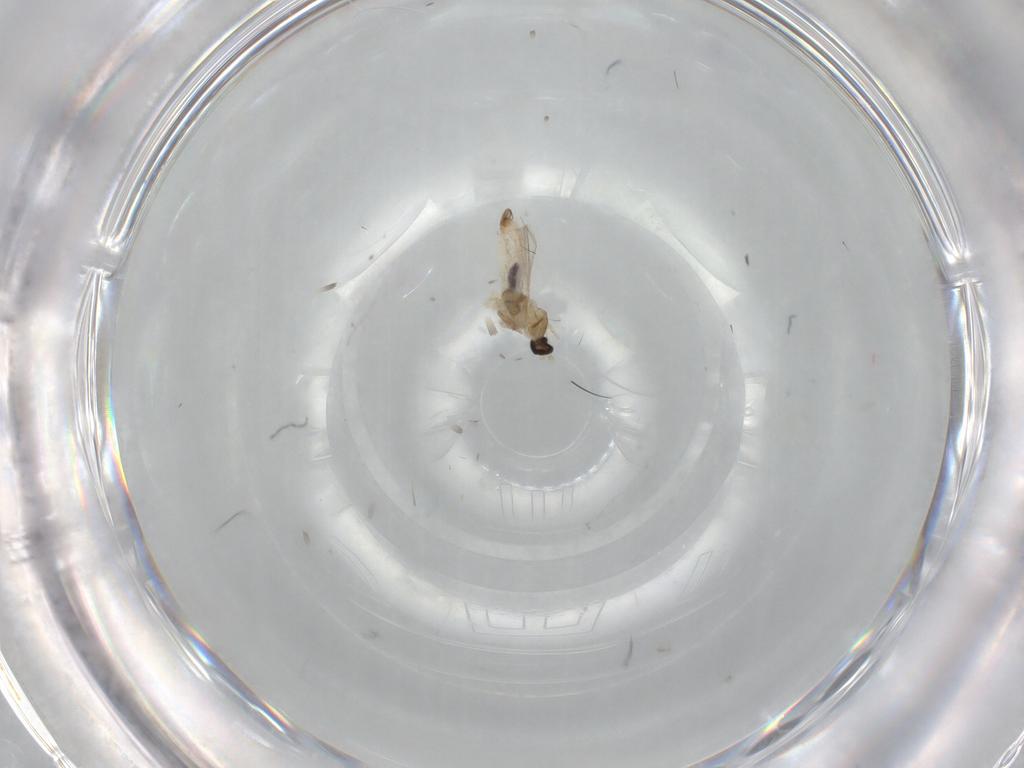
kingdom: Animalia
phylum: Arthropoda
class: Insecta
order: Diptera
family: Cecidomyiidae
